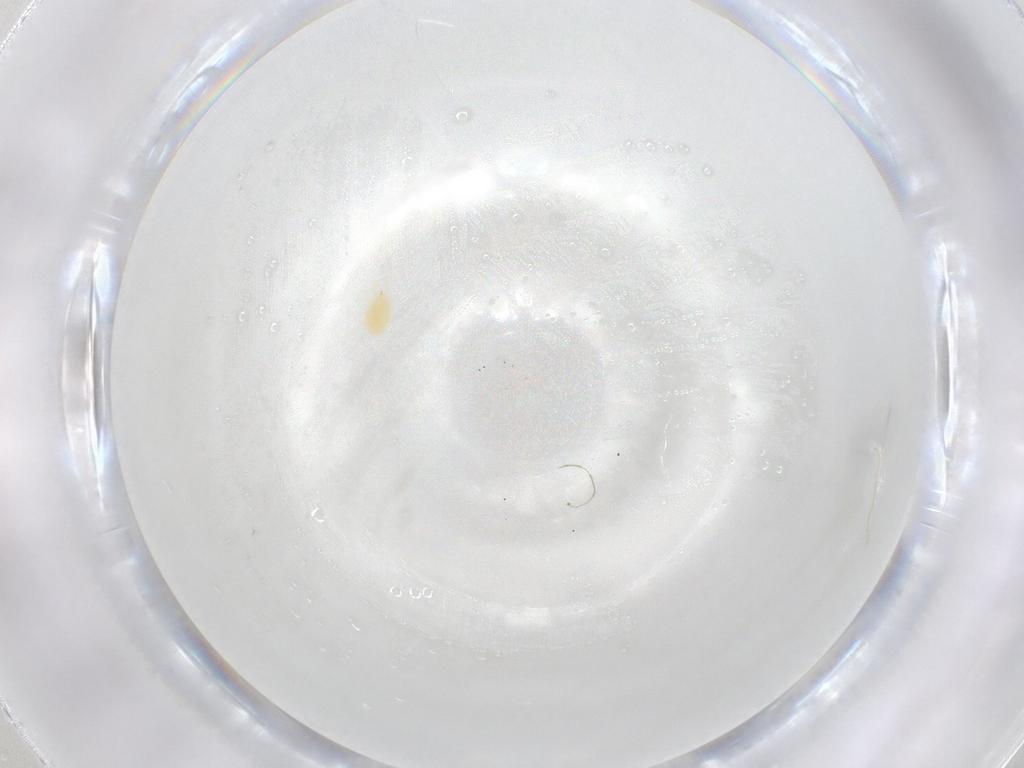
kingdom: Animalia
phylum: Arthropoda
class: Arachnida
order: Trombidiformes
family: Tetranychidae
